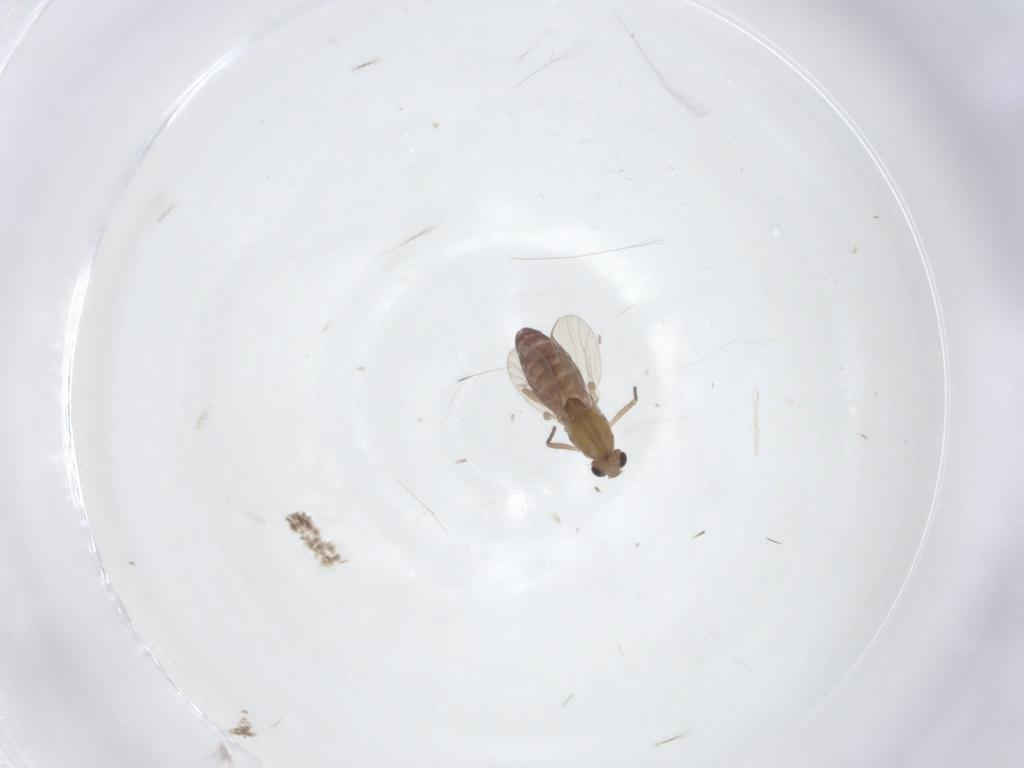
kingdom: Animalia
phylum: Arthropoda
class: Insecta
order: Diptera
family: Chironomidae
